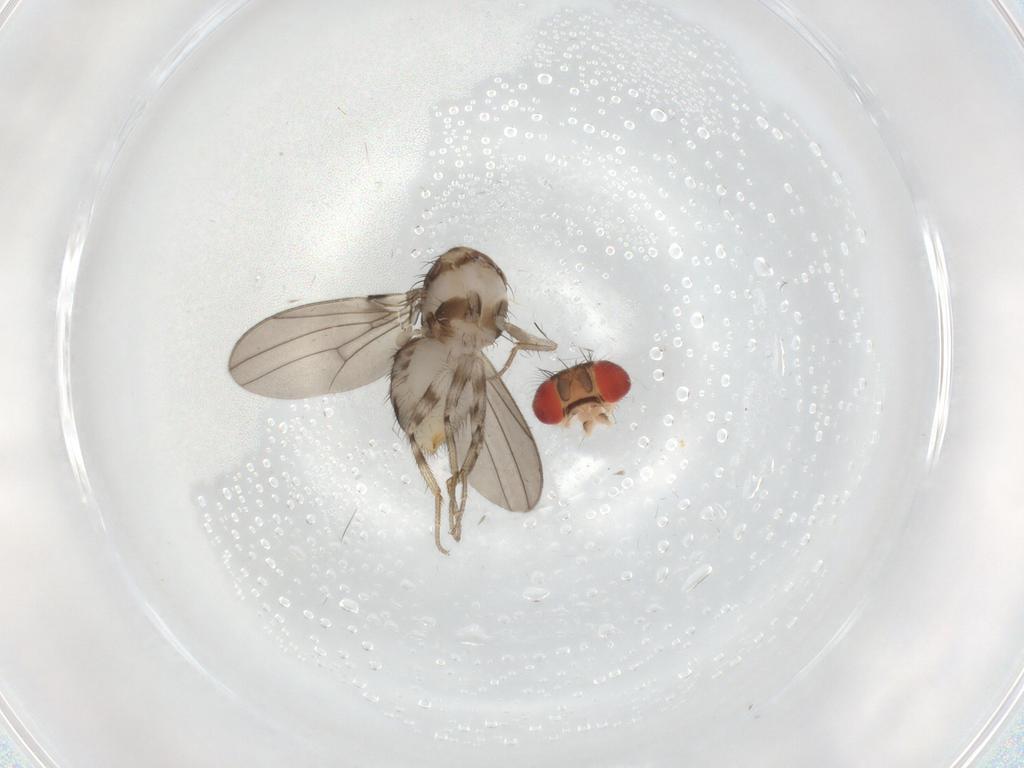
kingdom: Animalia
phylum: Arthropoda
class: Insecta
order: Diptera
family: Drosophilidae
